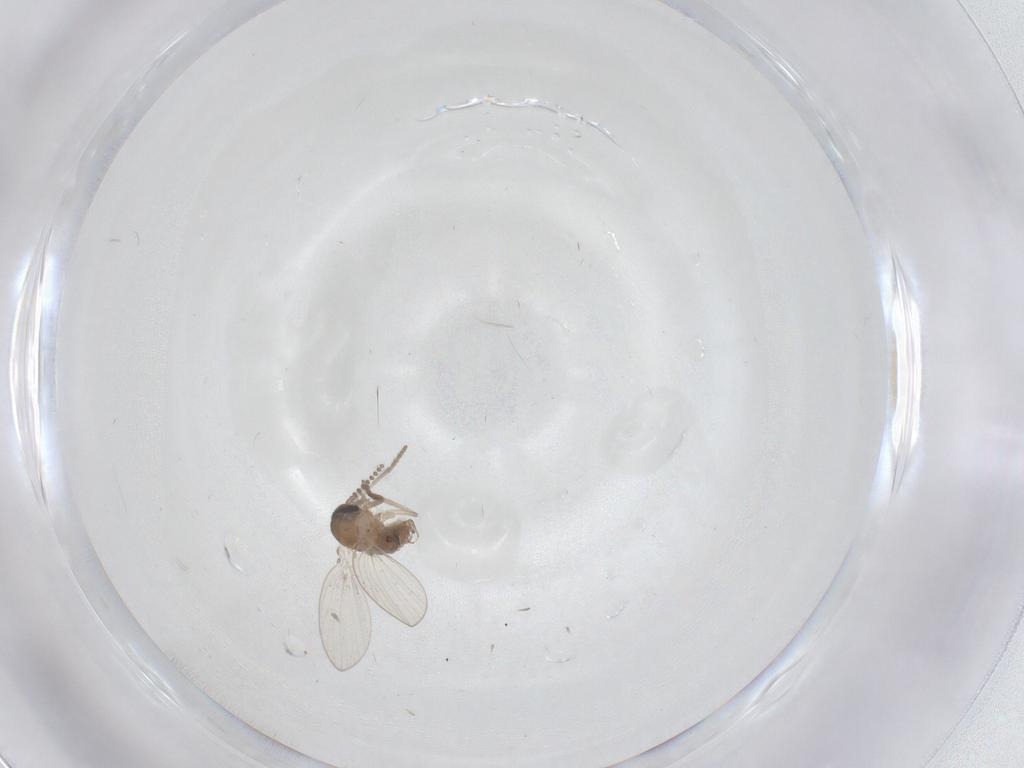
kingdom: Animalia
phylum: Arthropoda
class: Insecta
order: Diptera
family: Psychodidae
